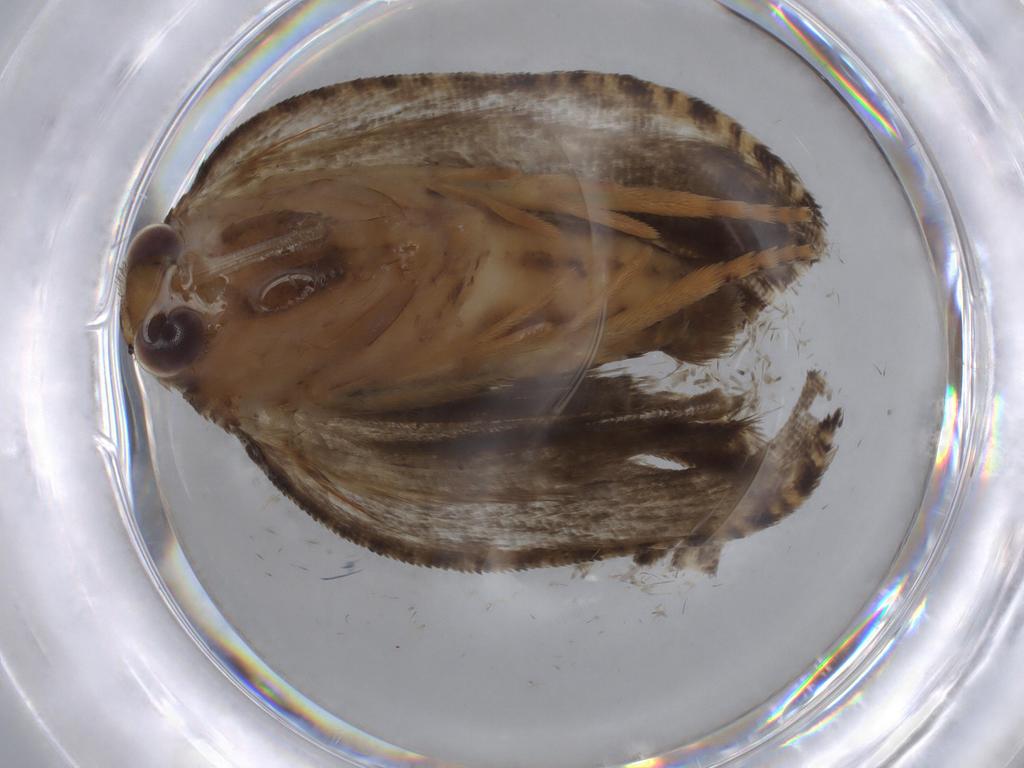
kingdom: Animalia
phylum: Arthropoda
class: Insecta
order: Lepidoptera
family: Tortricidae
